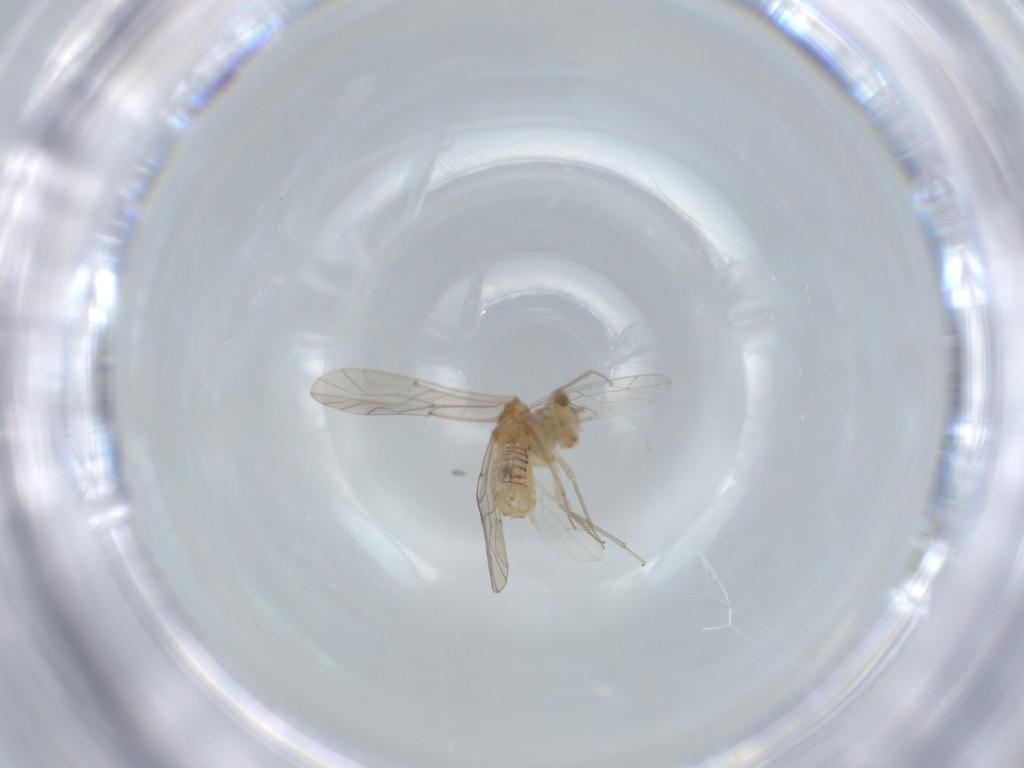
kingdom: Animalia
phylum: Arthropoda
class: Insecta
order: Psocodea
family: Lachesillidae
